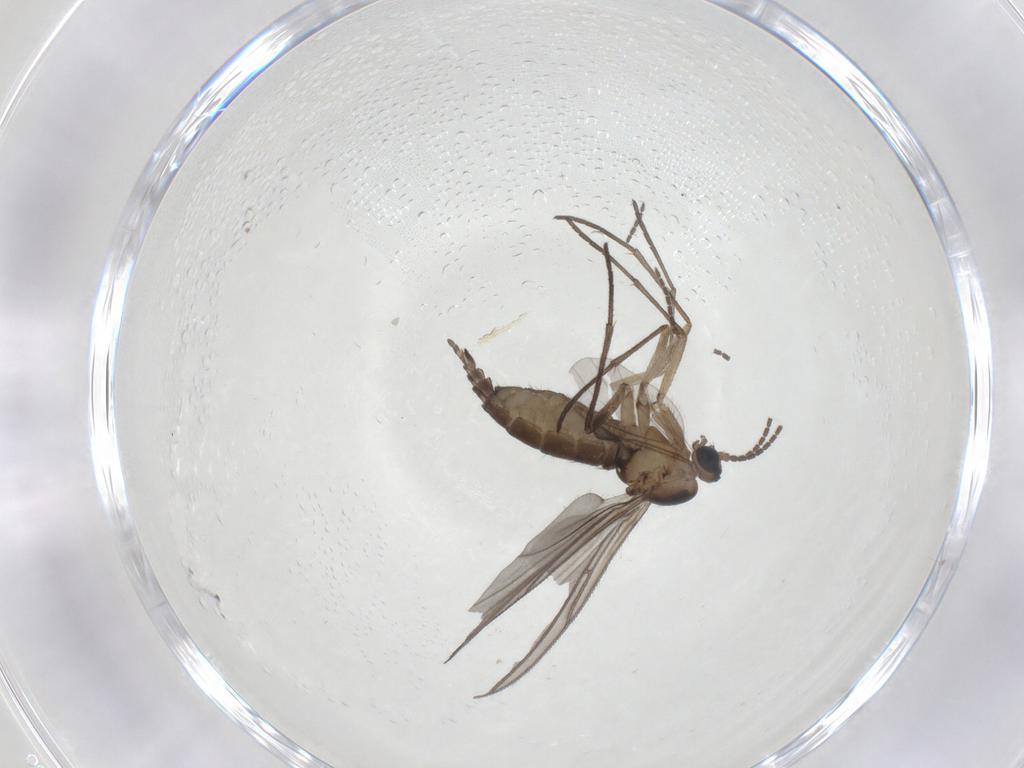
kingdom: Animalia
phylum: Arthropoda
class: Insecta
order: Diptera
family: Sciaridae
